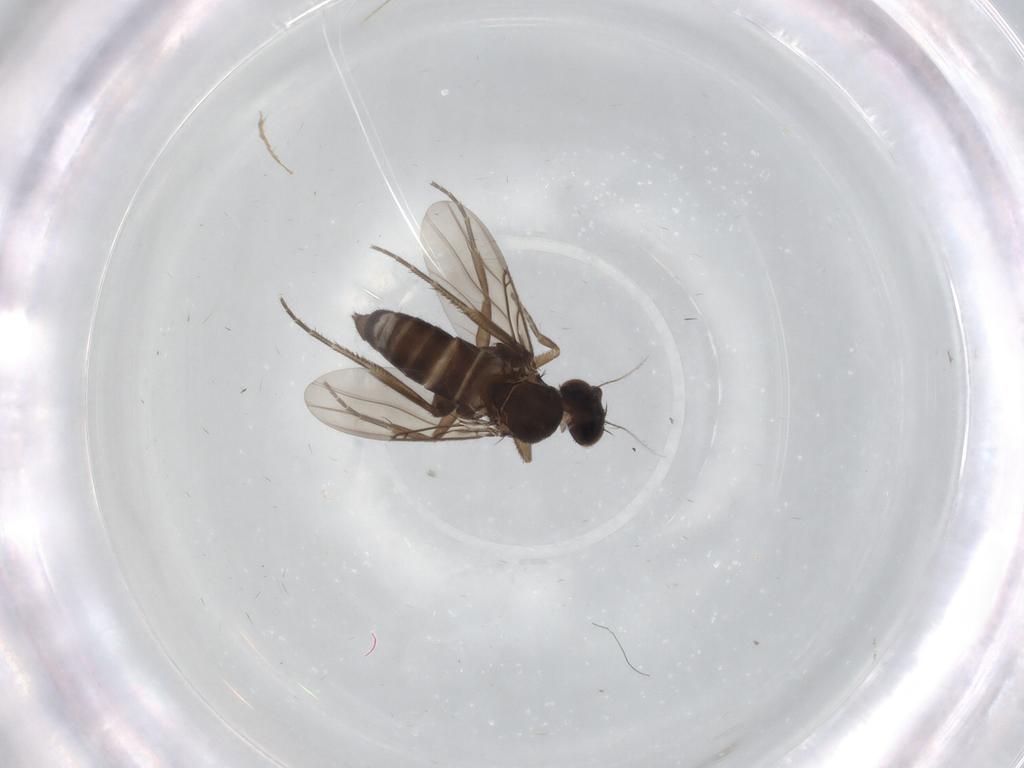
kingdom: Animalia
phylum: Arthropoda
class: Insecta
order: Diptera
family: Phoridae
